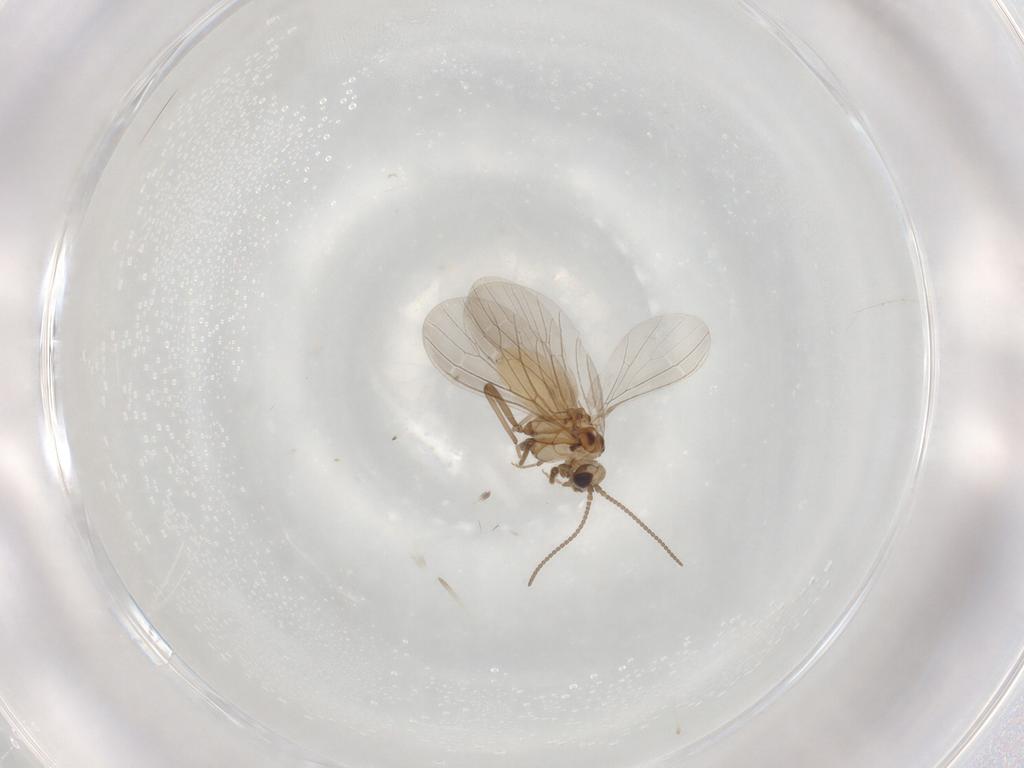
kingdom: Animalia
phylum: Arthropoda
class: Insecta
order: Neuroptera
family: Coniopterygidae
